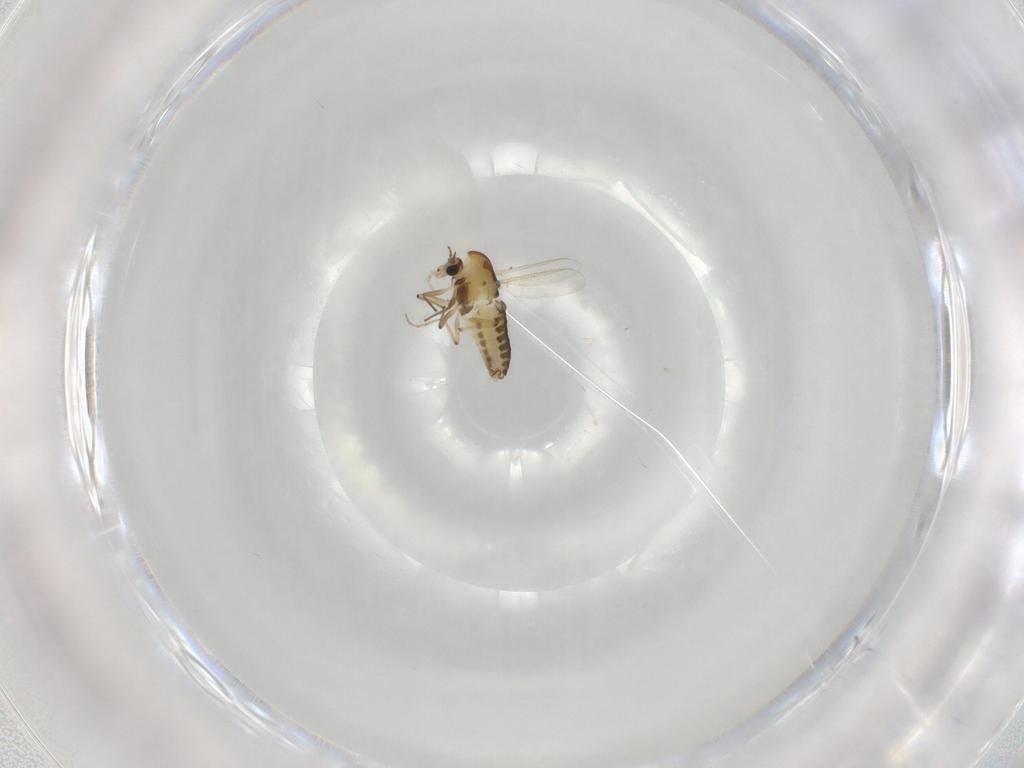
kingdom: Animalia
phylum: Arthropoda
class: Insecta
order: Diptera
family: Chironomidae
